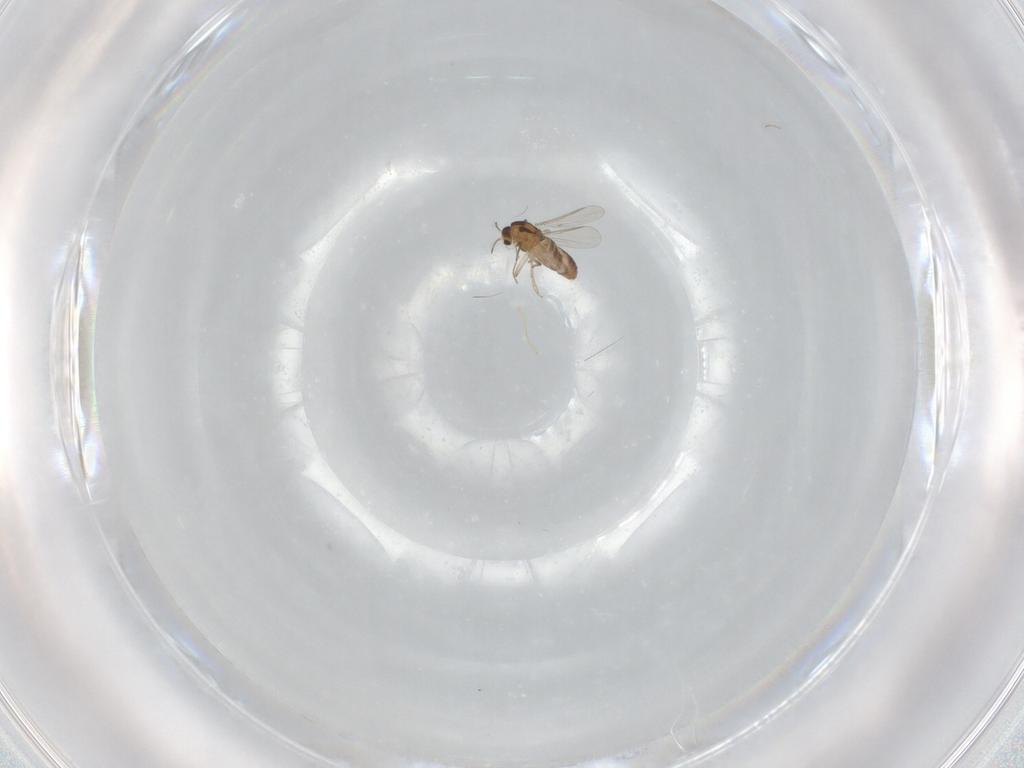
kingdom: Animalia
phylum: Arthropoda
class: Insecta
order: Diptera
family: Chironomidae
